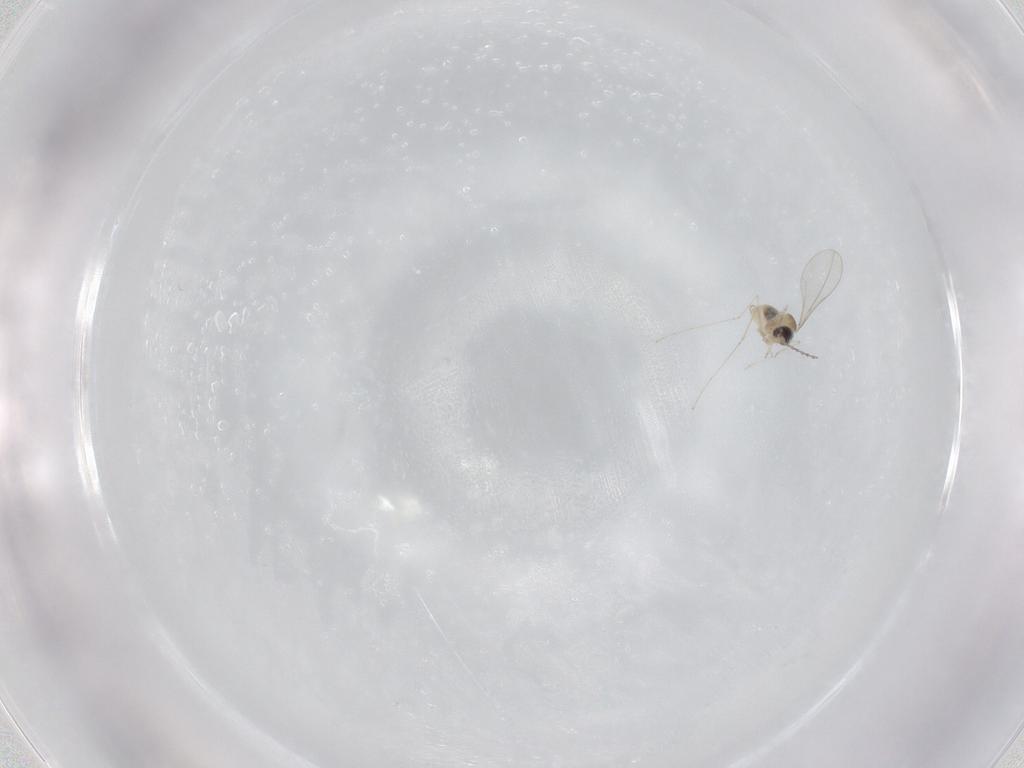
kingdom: Animalia
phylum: Arthropoda
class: Insecta
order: Diptera
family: Cecidomyiidae
